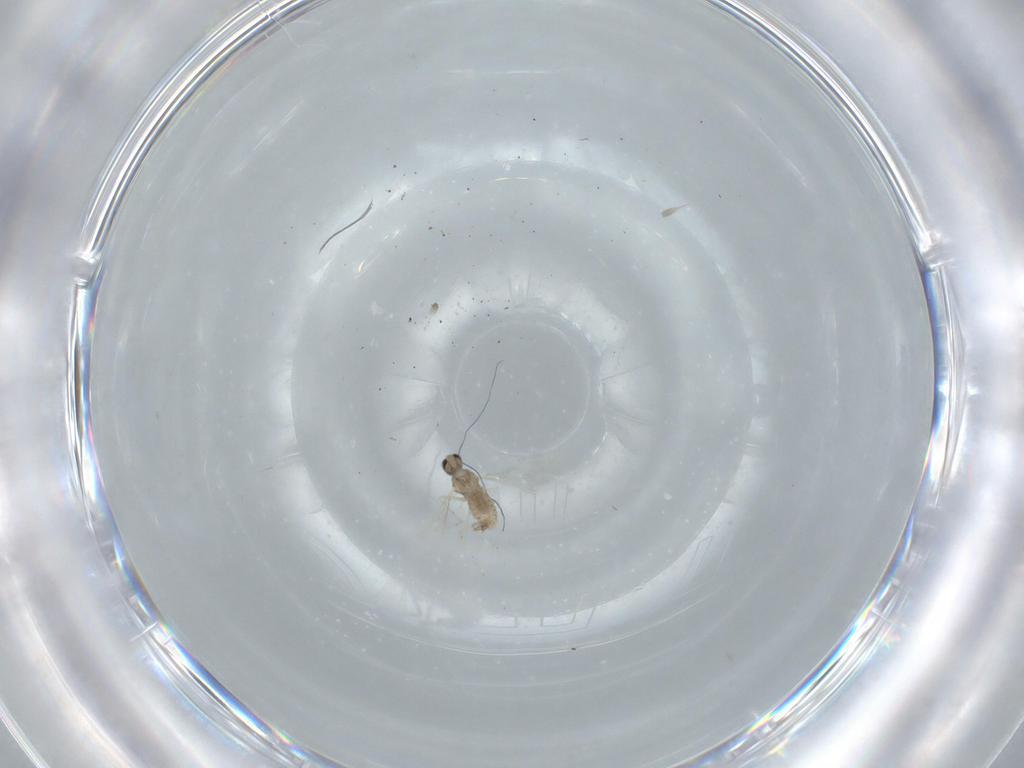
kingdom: Animalia
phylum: Arthropoda
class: Insecta
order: Diptera
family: Cecidomyiidae
